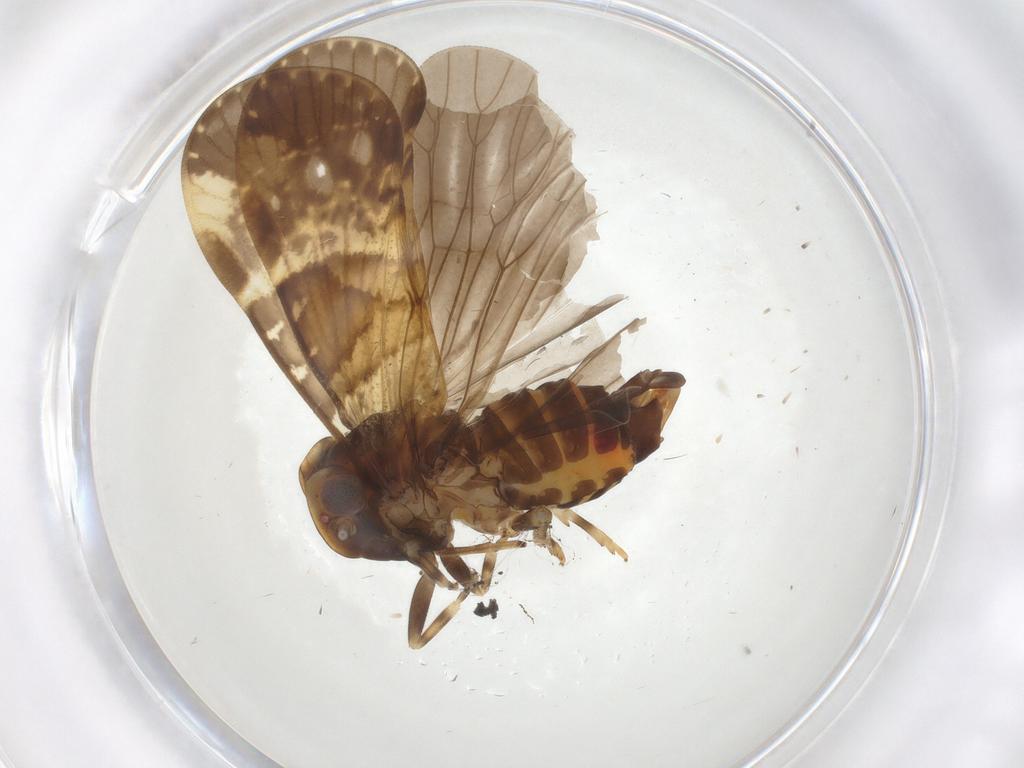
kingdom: Animalia
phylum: Arthropoda
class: Insecta
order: Hemiptera
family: Cixiidae
